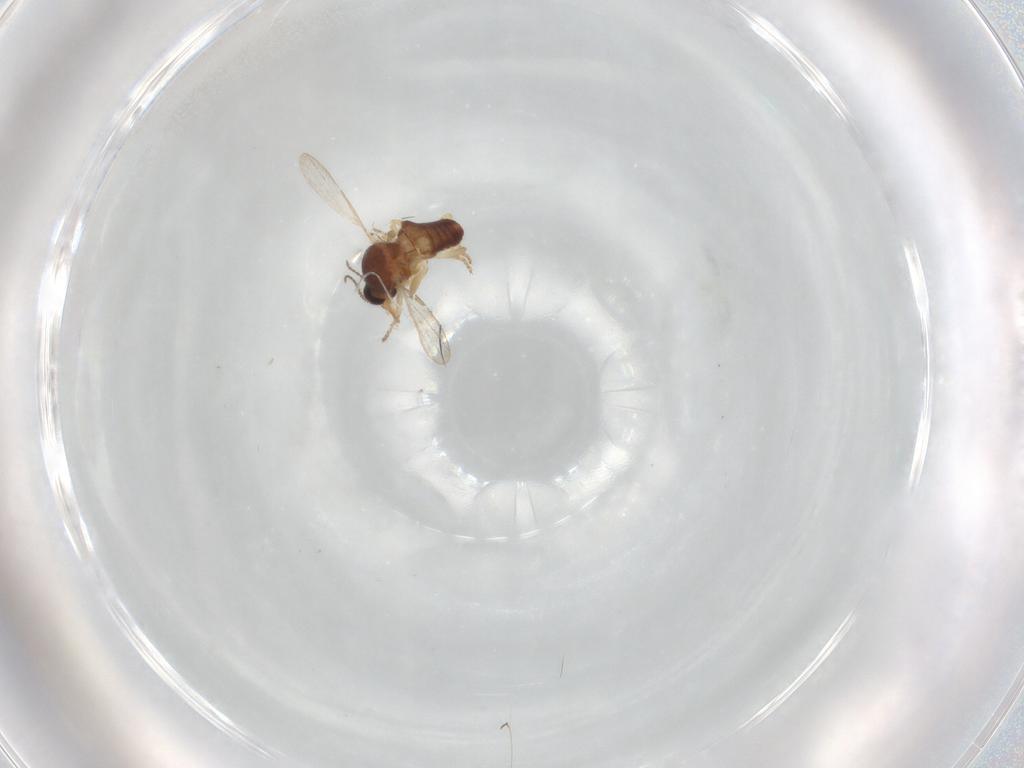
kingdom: Animalia
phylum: Arthropoda
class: Insecta
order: Diptera
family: Ceratopogonidae
